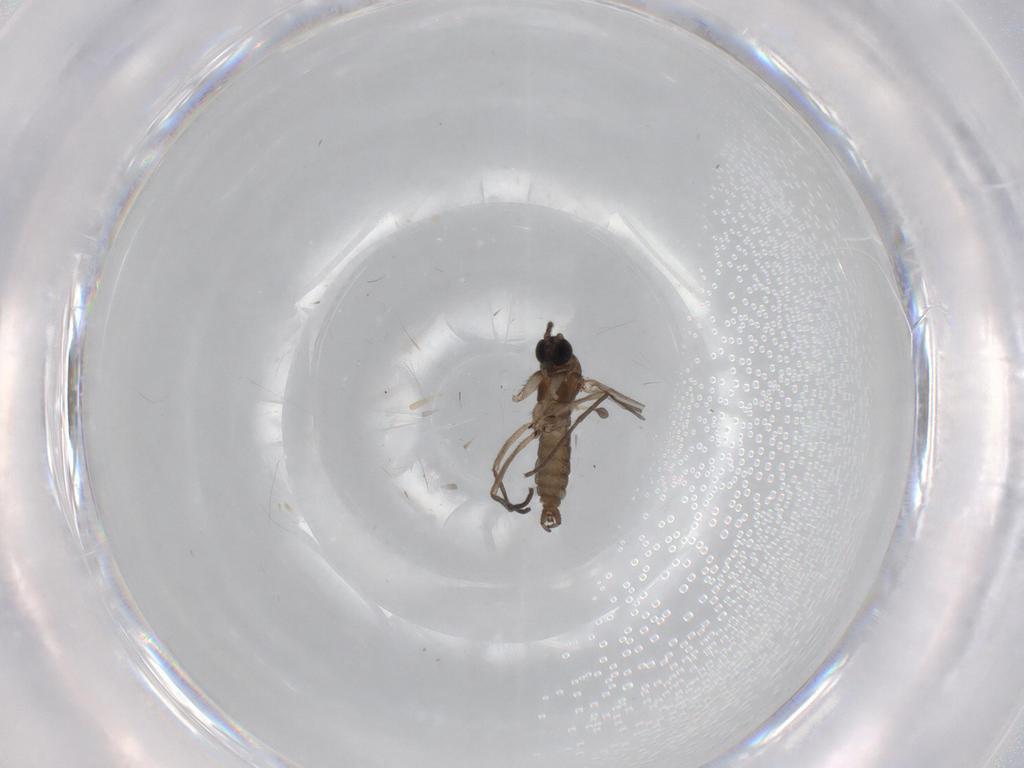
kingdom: Animalia
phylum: Arthropoda
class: Insecta
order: Diptera
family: Sciaridae
